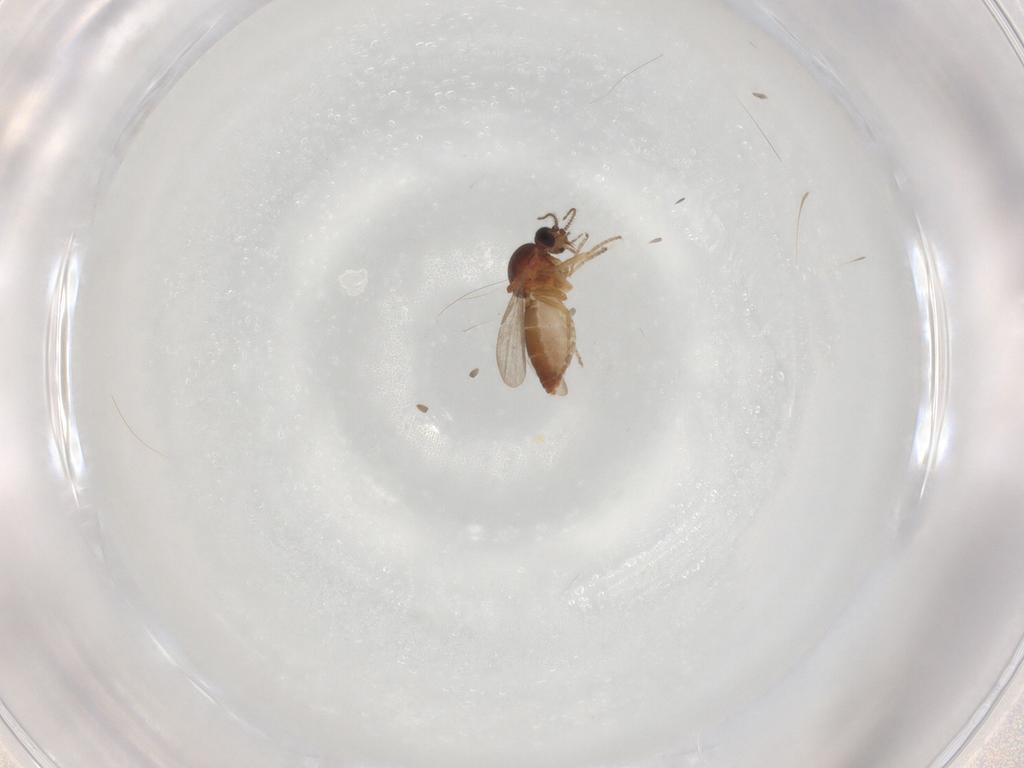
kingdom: Animalia
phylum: Arthropoda
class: Insecta
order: Diptera
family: Ceratopogonidae
